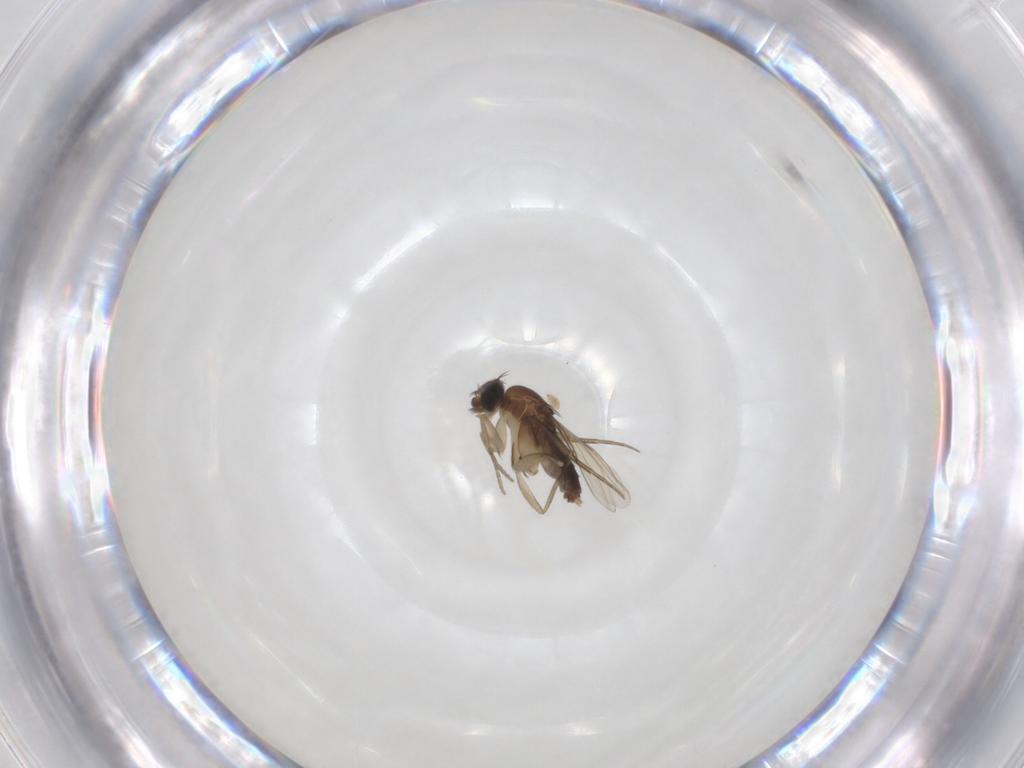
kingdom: Animalia
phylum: Arthropoda
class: Insecta
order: Diptera
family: Phoridae
